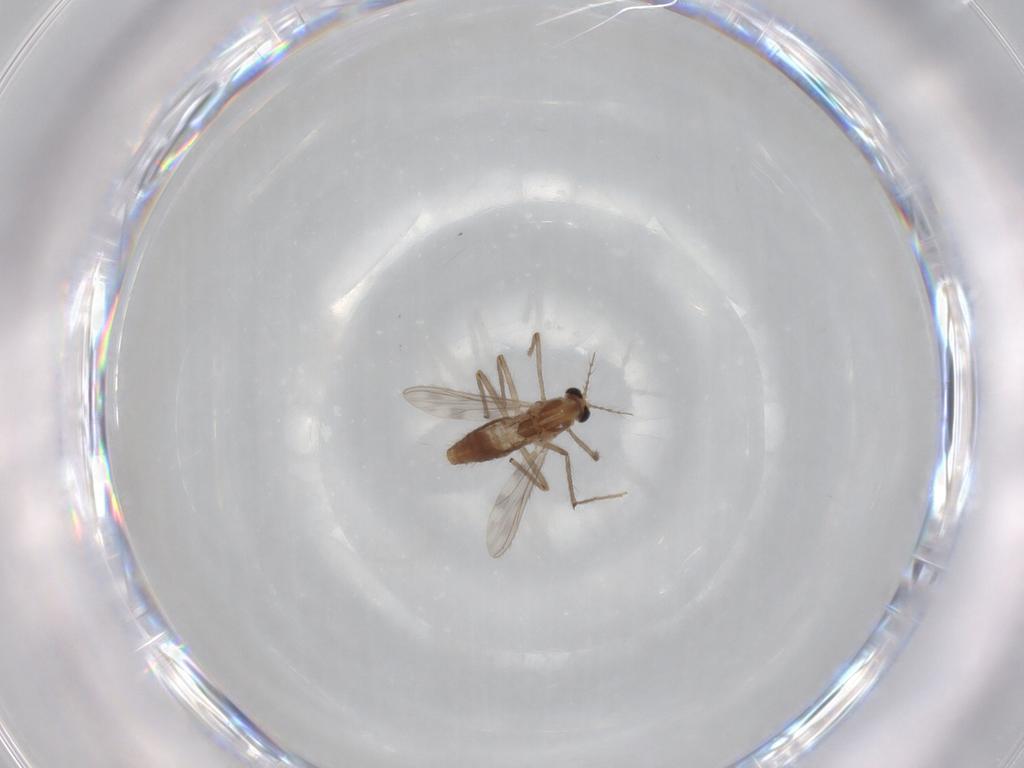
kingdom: Animalia
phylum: Arthropoda
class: Insecta
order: Diptera
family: Chironomidae
